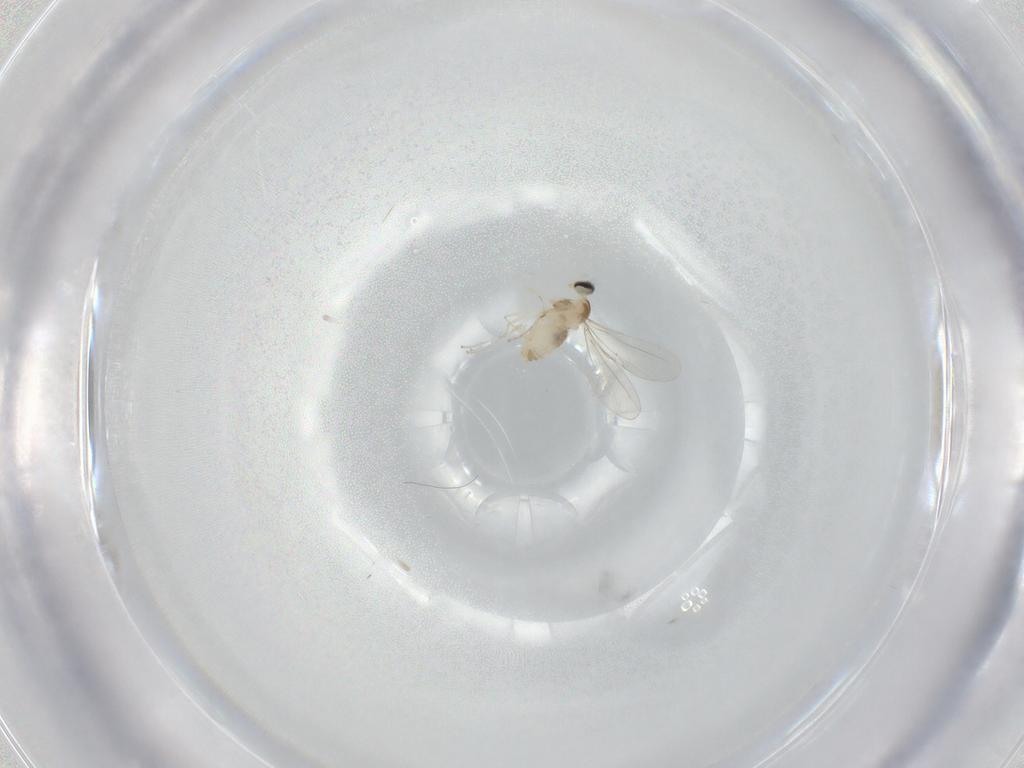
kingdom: Animalia
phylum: Arthropoda
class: Insecta
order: Diptera
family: Cecidomyiidae
